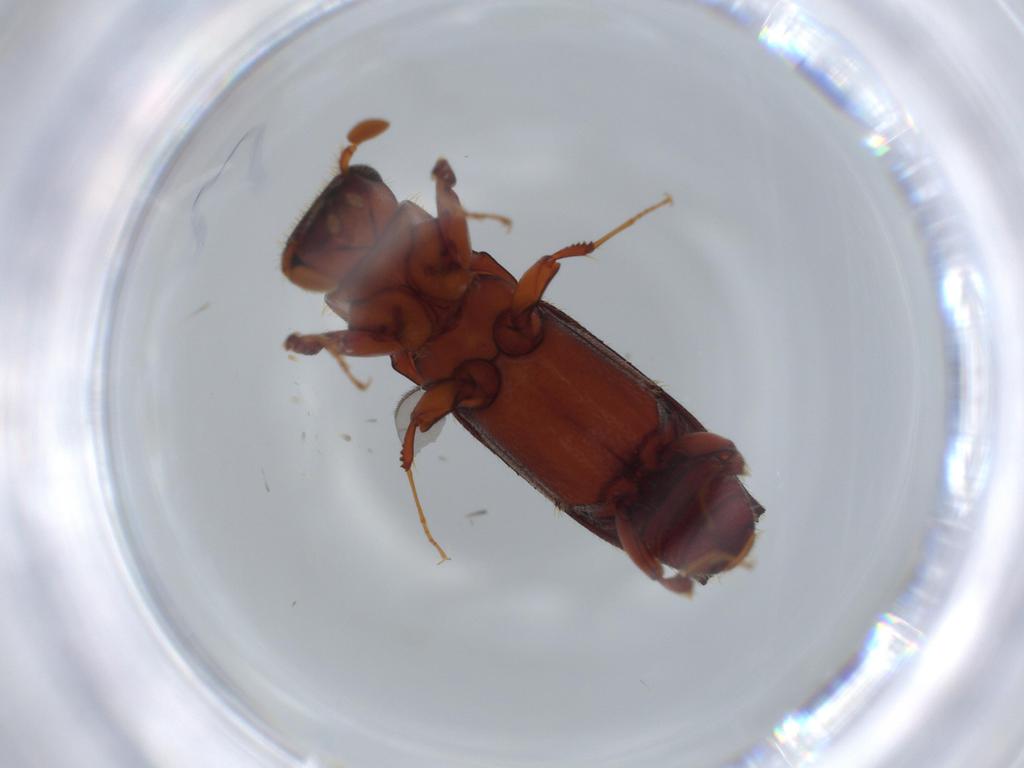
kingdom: Animalia
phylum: Arthropoda
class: Insecta
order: Coleoptera
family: Curculionidae
